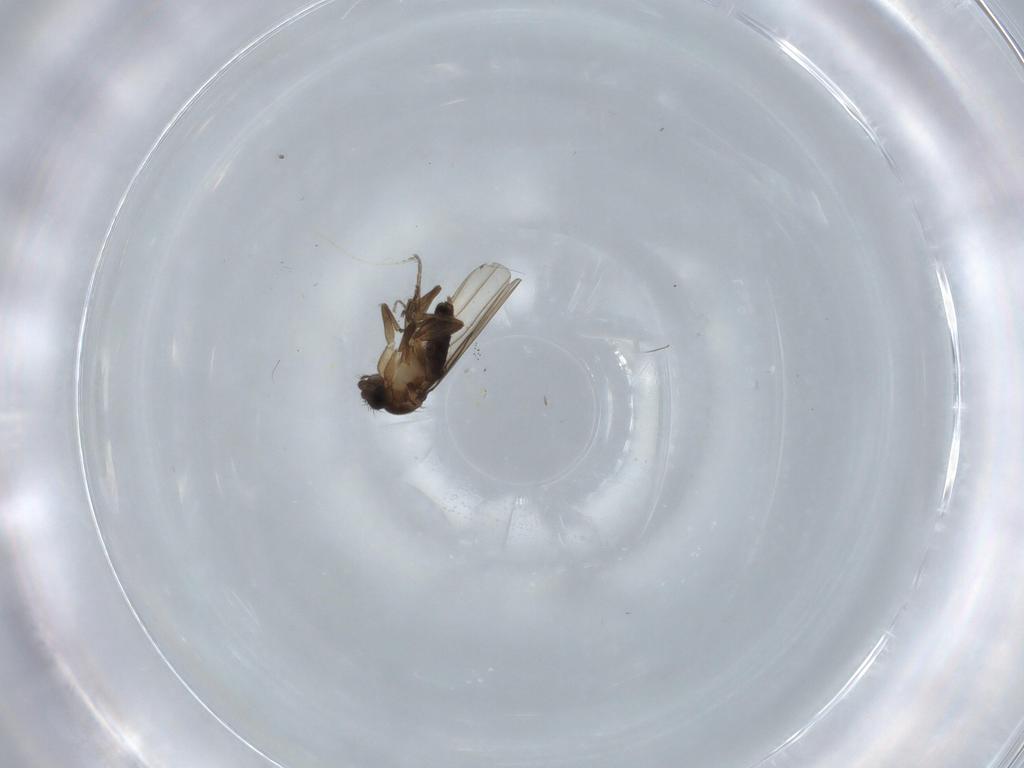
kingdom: Animalia
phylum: Arthropoda
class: Insecta
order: Diptera
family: Phoridae
